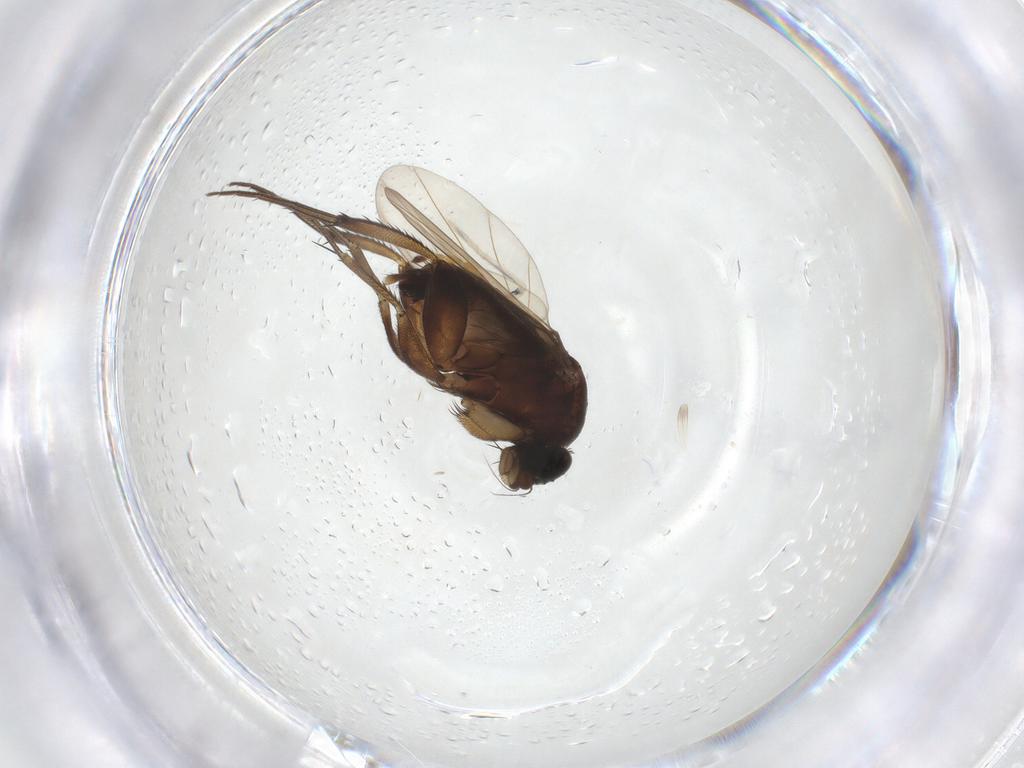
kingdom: Animalia
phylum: Arthropoda
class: Insecta
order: Diptera
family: Phoridae
